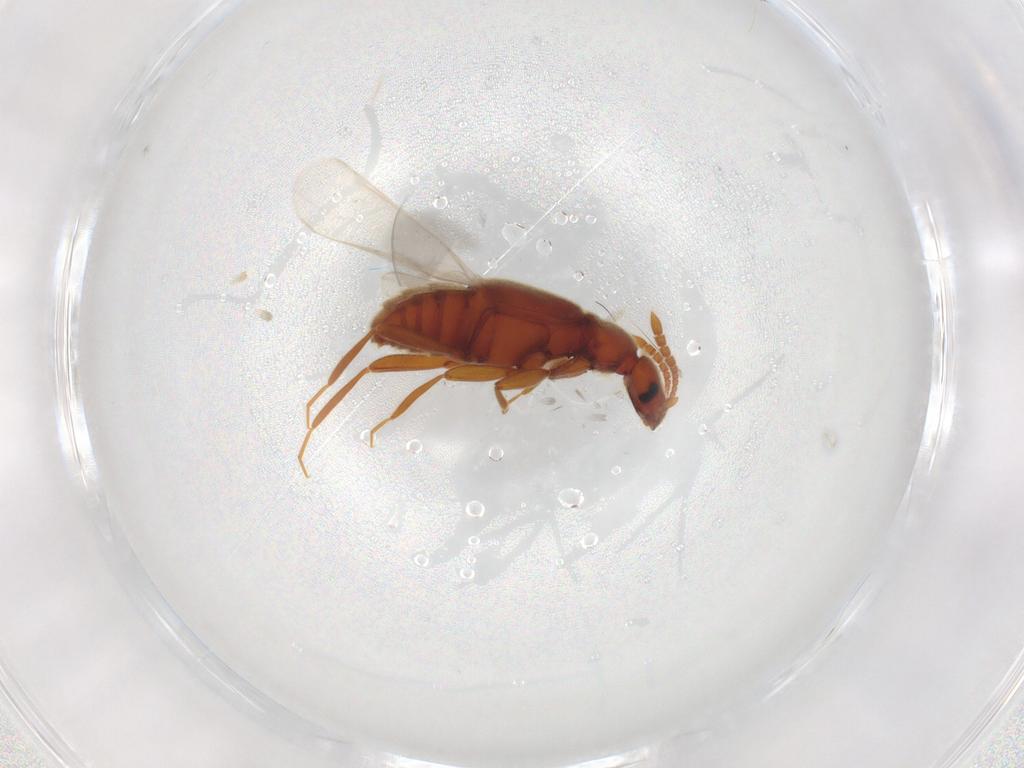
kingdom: Animalia
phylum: Arthropoda
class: Insecta
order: Coleoptera
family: Staphylinidae
